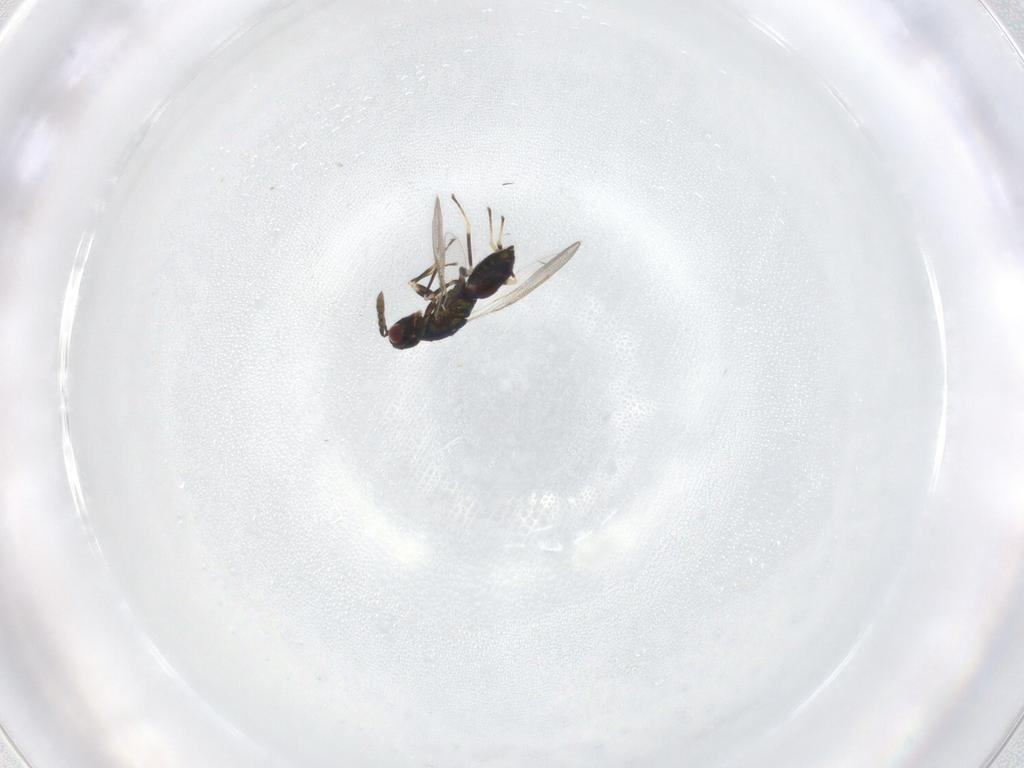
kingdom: Animalia
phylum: Arthropoda
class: Insecta
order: Hymenoptera
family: Eulophidae
